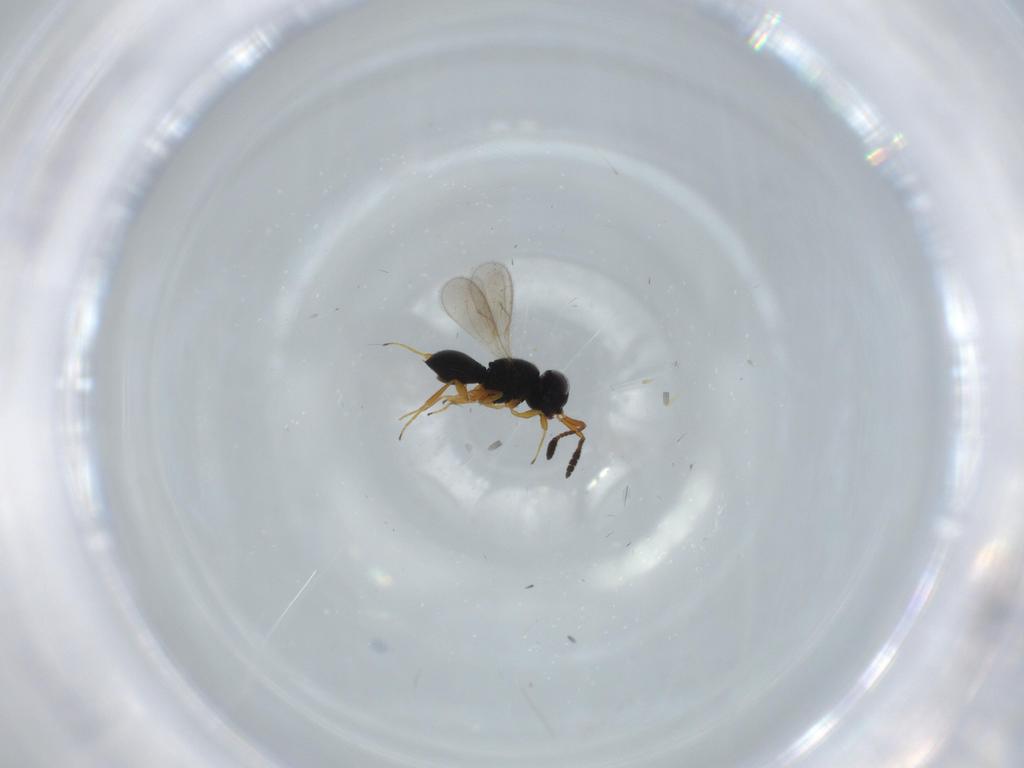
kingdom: Animalia
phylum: Arthropoda
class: Insecta
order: Hymenoptera
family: Scelionidae
